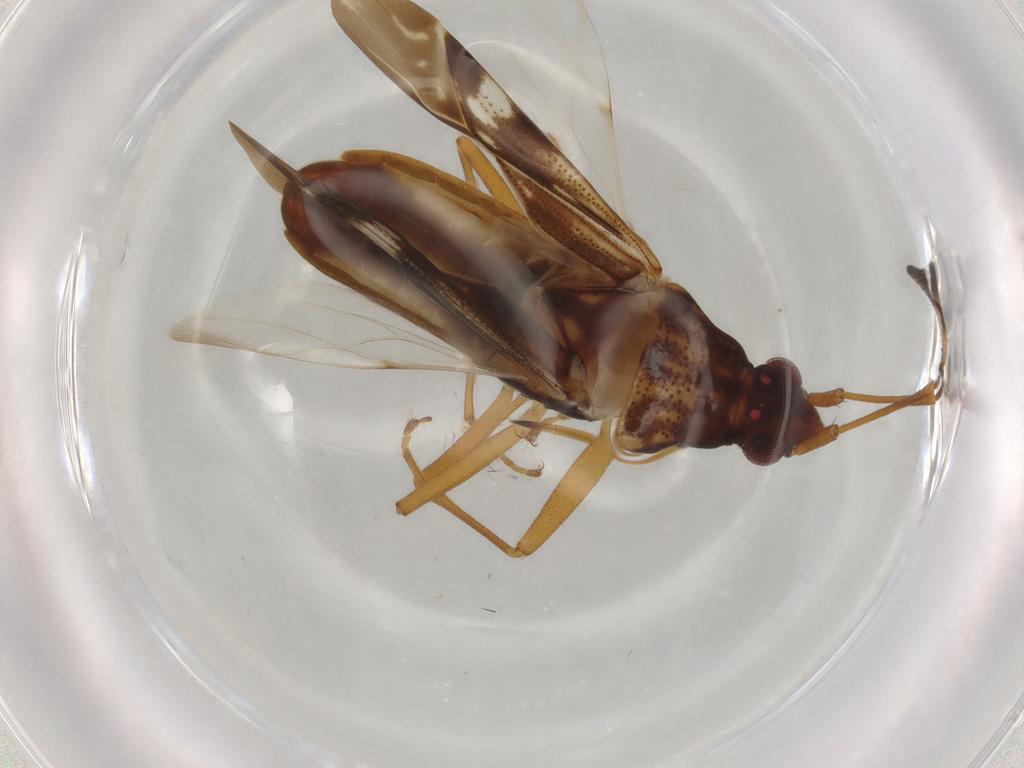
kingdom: Animalia
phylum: Arthropoda
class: Insecta
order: Hemiptera
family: Rhyparochromidae
